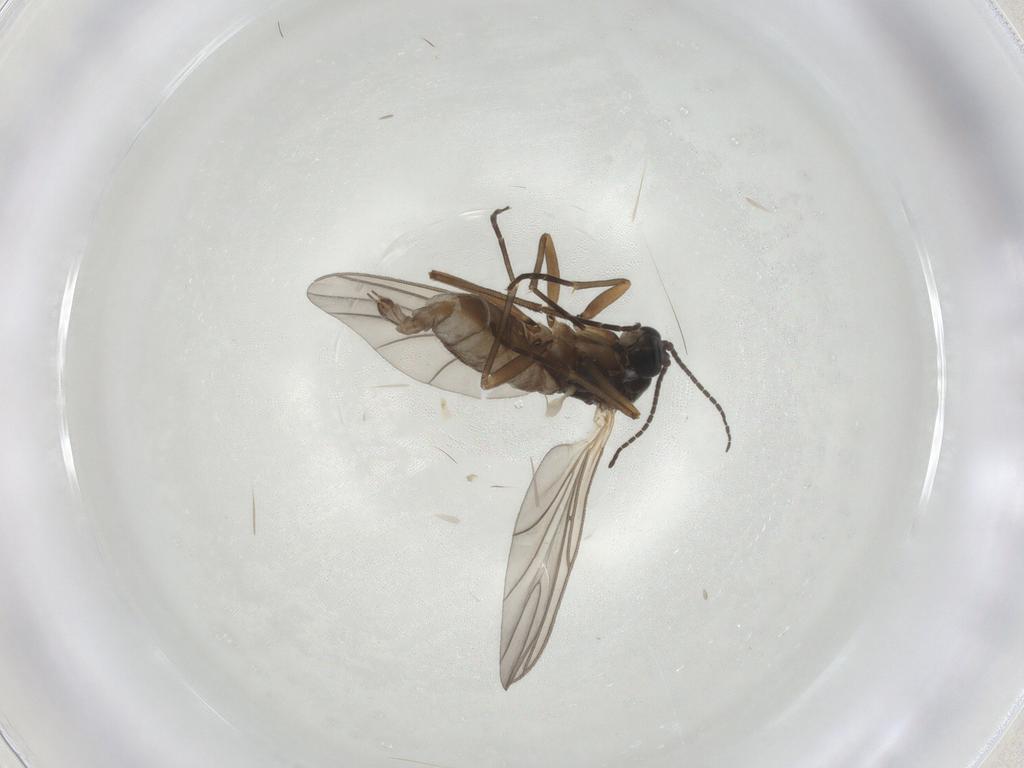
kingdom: Animalia
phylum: Arthropoda
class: Insecta
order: Diptera
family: Sciaridae
